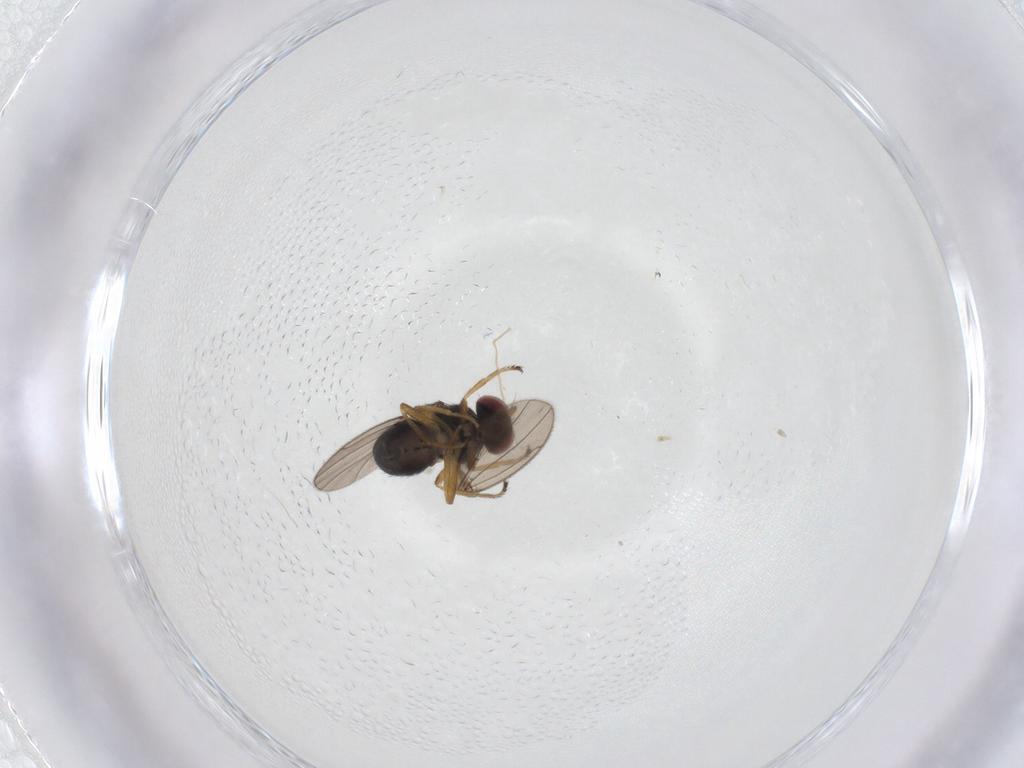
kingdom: Animalia
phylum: Arthropoda
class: Insecta
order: Diptera
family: Ephydridae
